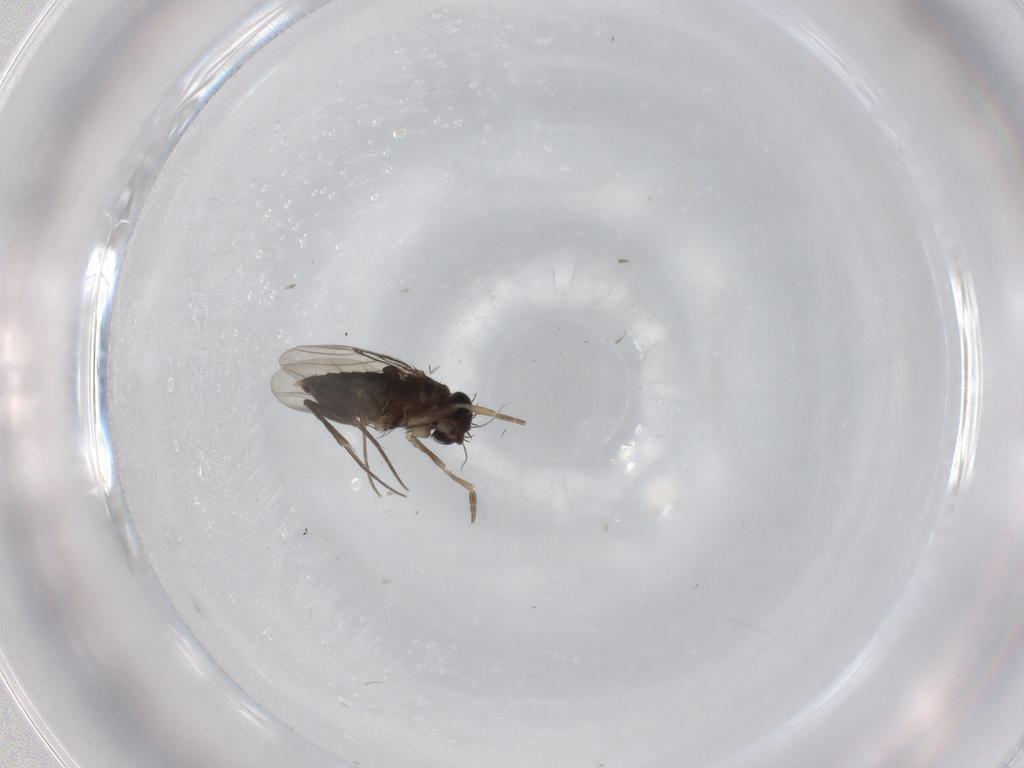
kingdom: Animalia
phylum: Arthropoda
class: Insecta
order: Diptera
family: Phoridae
